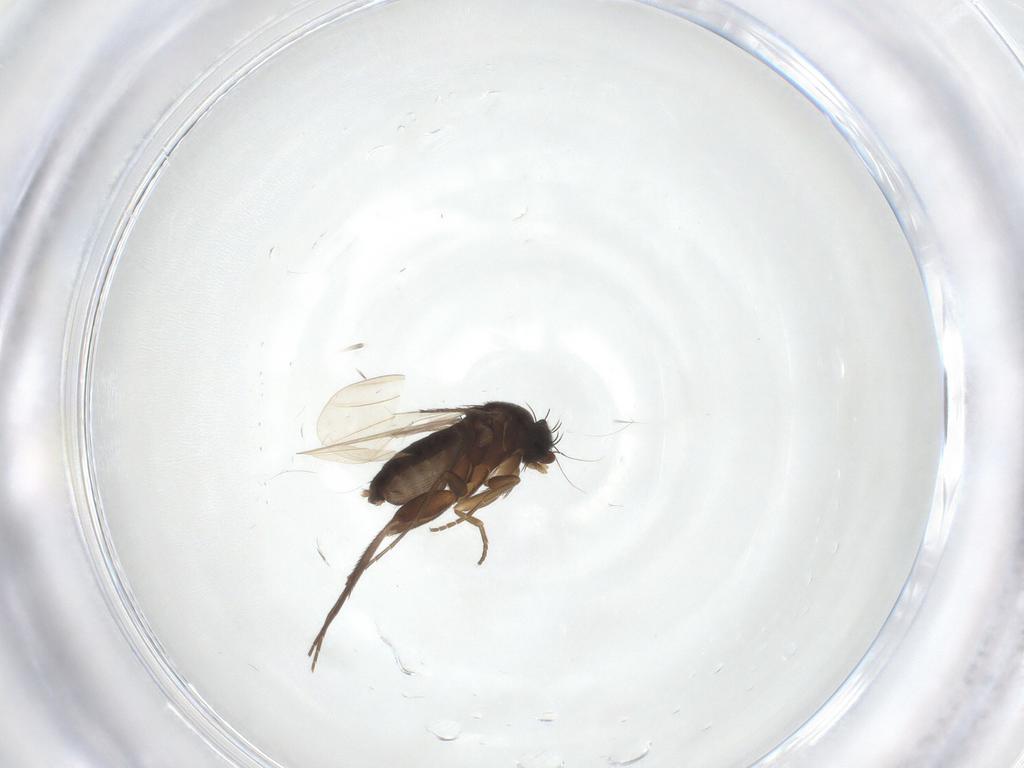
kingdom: Animalia
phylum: Arthropoda
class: Insecta
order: Diptera
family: Phoridae
